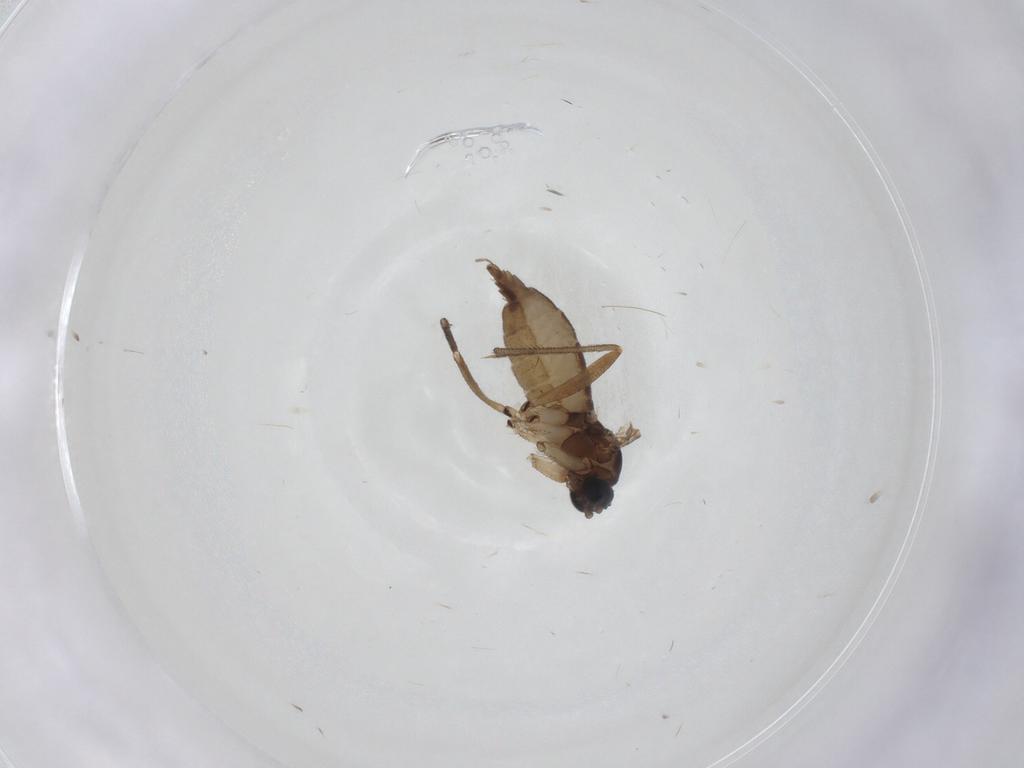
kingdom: Animalia
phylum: Arthropoda
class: Insecta
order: Diptera
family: Sciaridae
